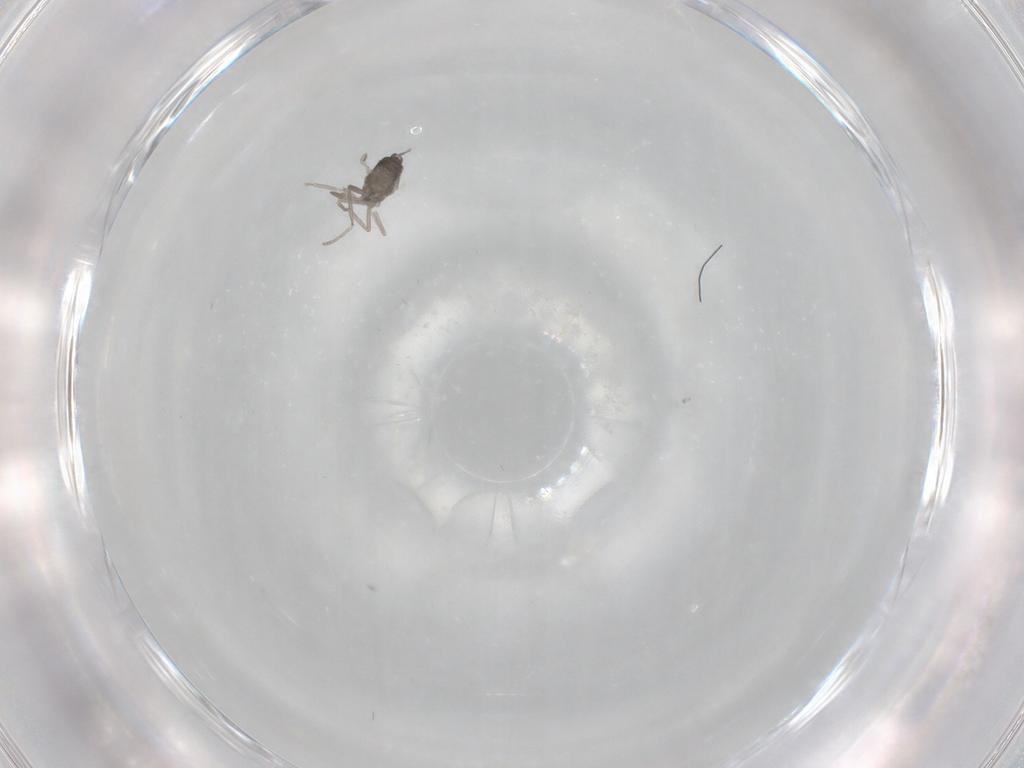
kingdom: Animalia
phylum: Arthropoda
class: Insecta
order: Diptera
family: Cecidomyiidae
